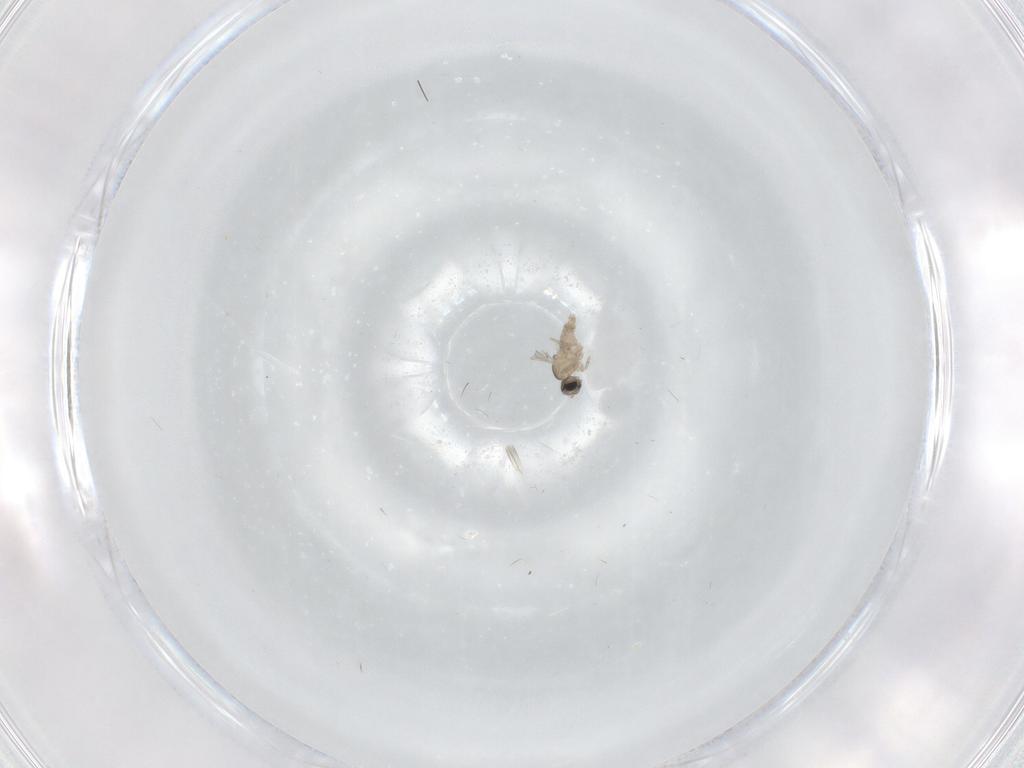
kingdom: Animalia
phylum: Arthropoda
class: Insecta
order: Diptera
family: Cecidomyiidae
